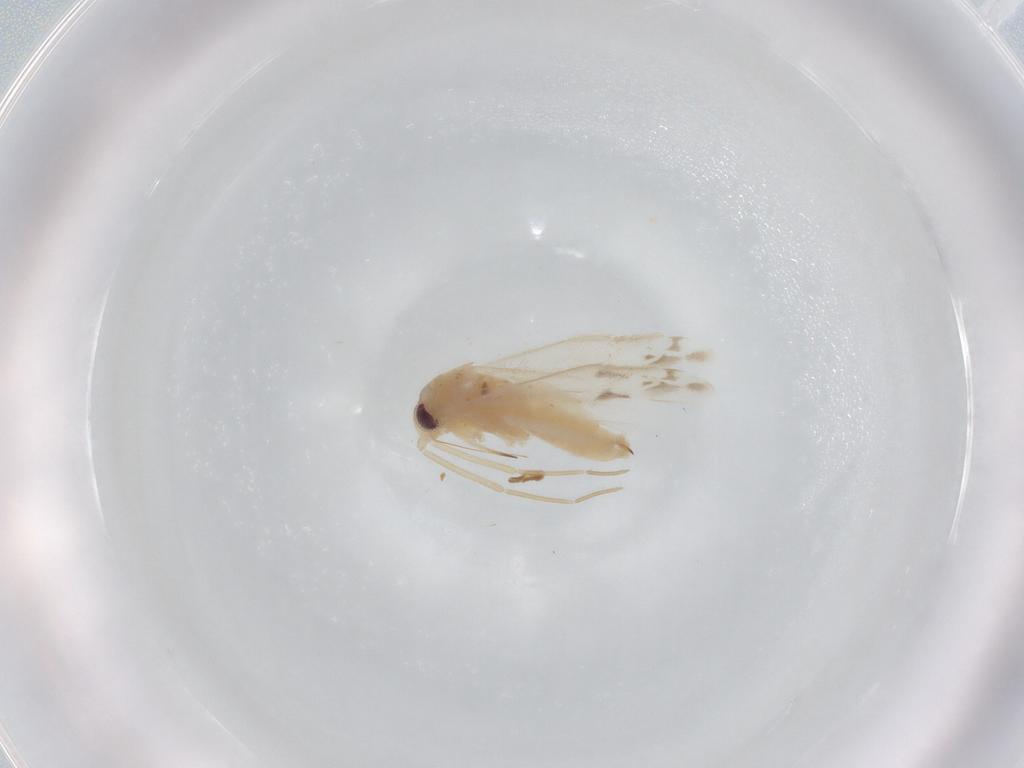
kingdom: Animalia
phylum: Arthropoda
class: Insecta
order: Hemiptera
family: Miridae
